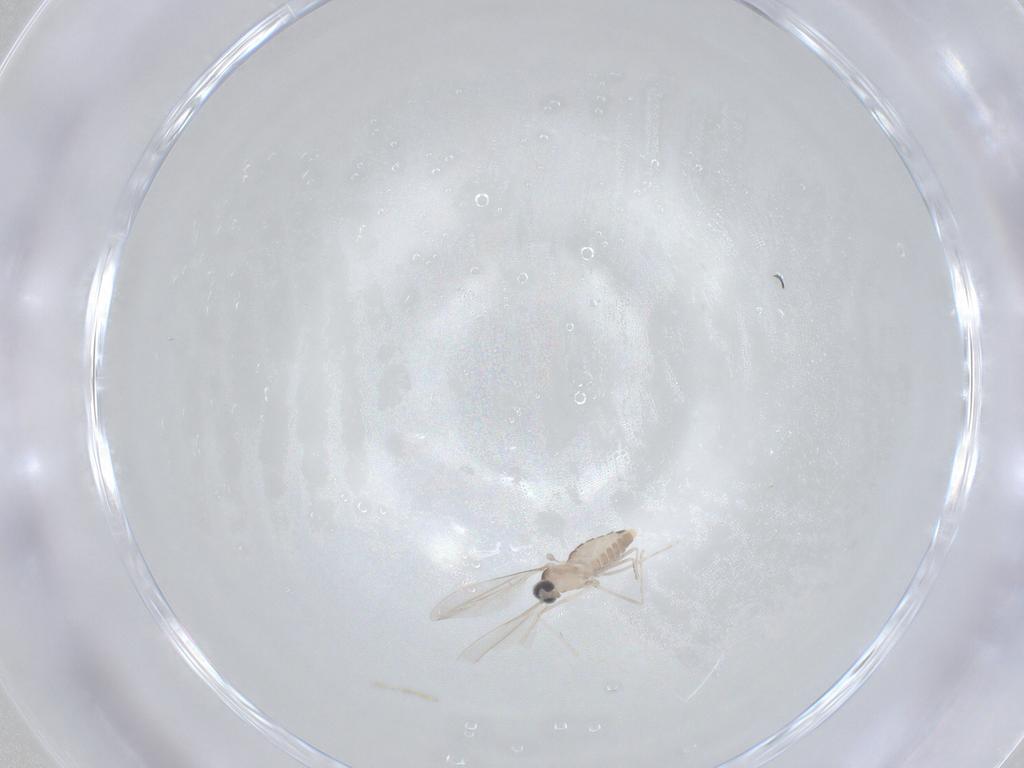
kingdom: Animalia
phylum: Arthropoda
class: Insecta
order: Diptera
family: Cecidomyiidae
